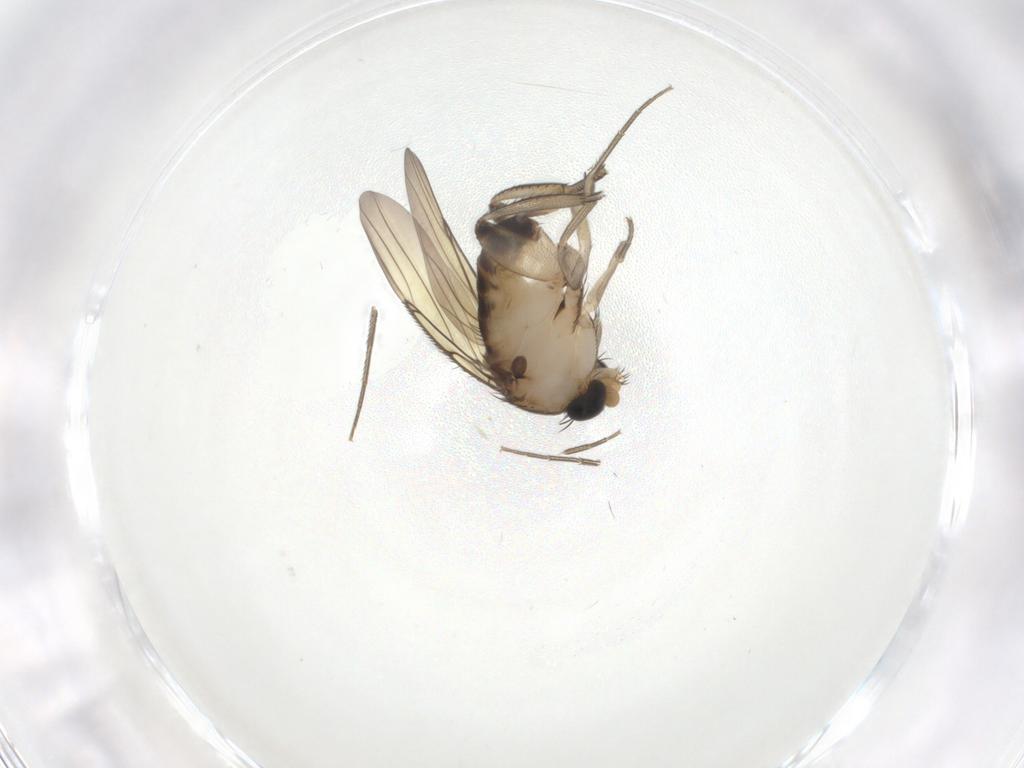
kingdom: Animalia
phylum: Arthropoda
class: Insecta
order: Diptera
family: Phoridae
